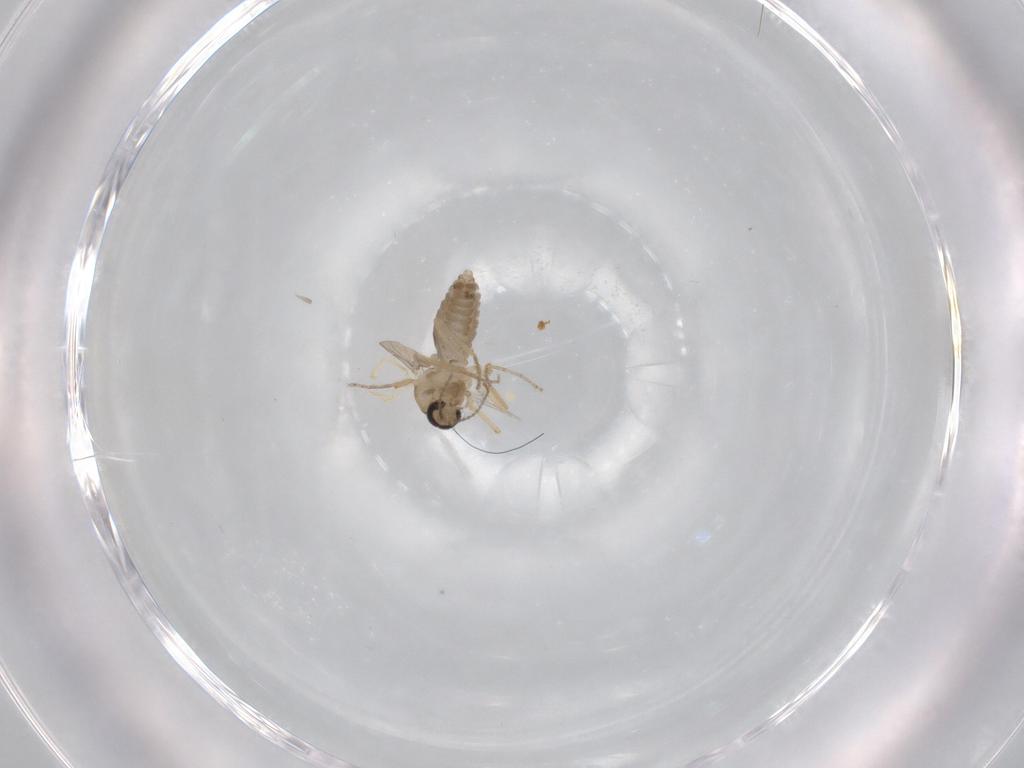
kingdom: Animalia
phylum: Arthropoda
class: Insecta
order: Diptera
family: Ceratopogonidae
